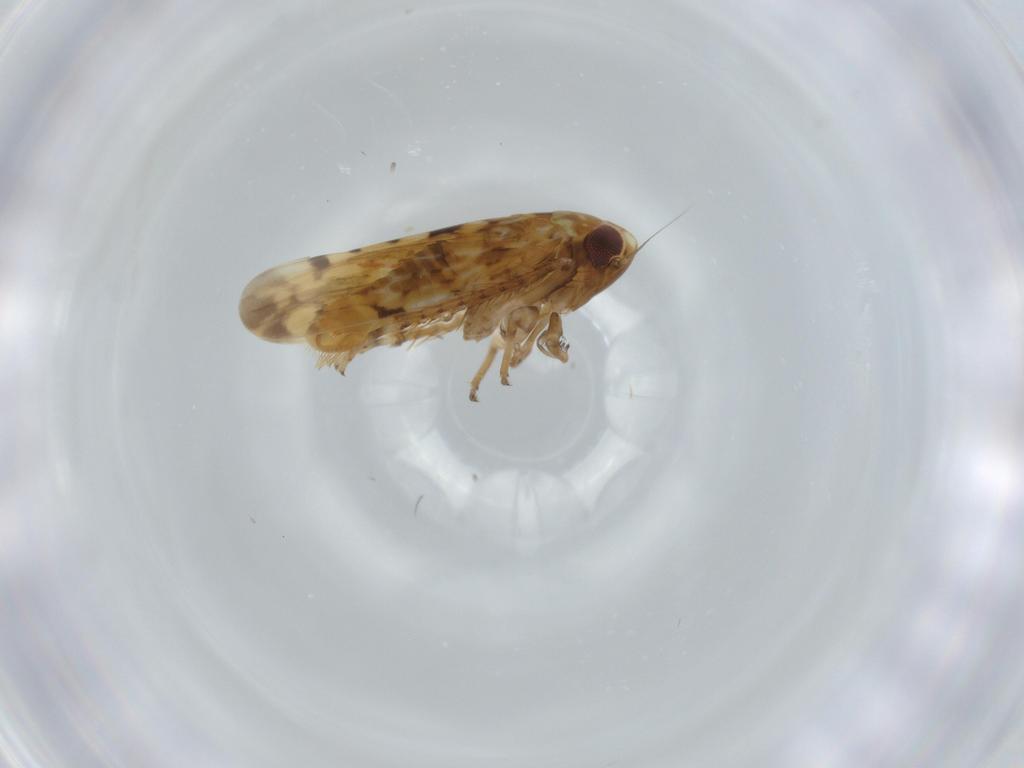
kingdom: Animalia
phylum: Arthropoda
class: Insecta
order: Hemiptera
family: Cicadellidae
